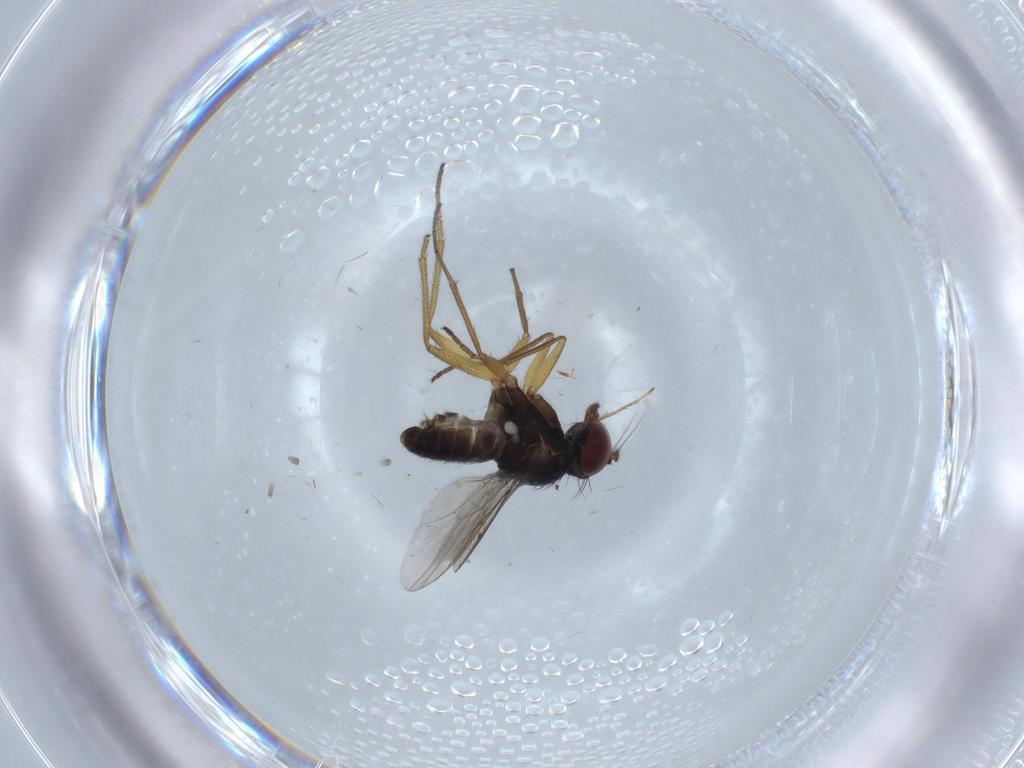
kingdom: Animalia
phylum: Arthropoda
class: Insecta
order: Diptera
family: Dolichopodidae
